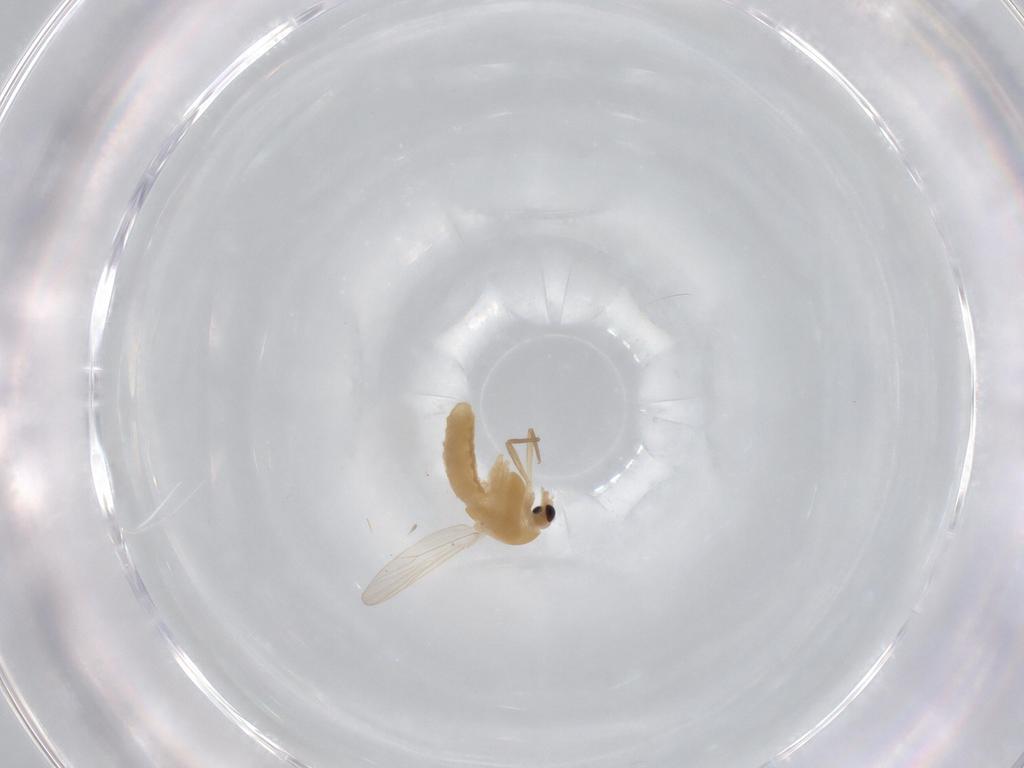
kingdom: Animalia
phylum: Arthropoda
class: Insecta
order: Diptera
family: Chironomidae
